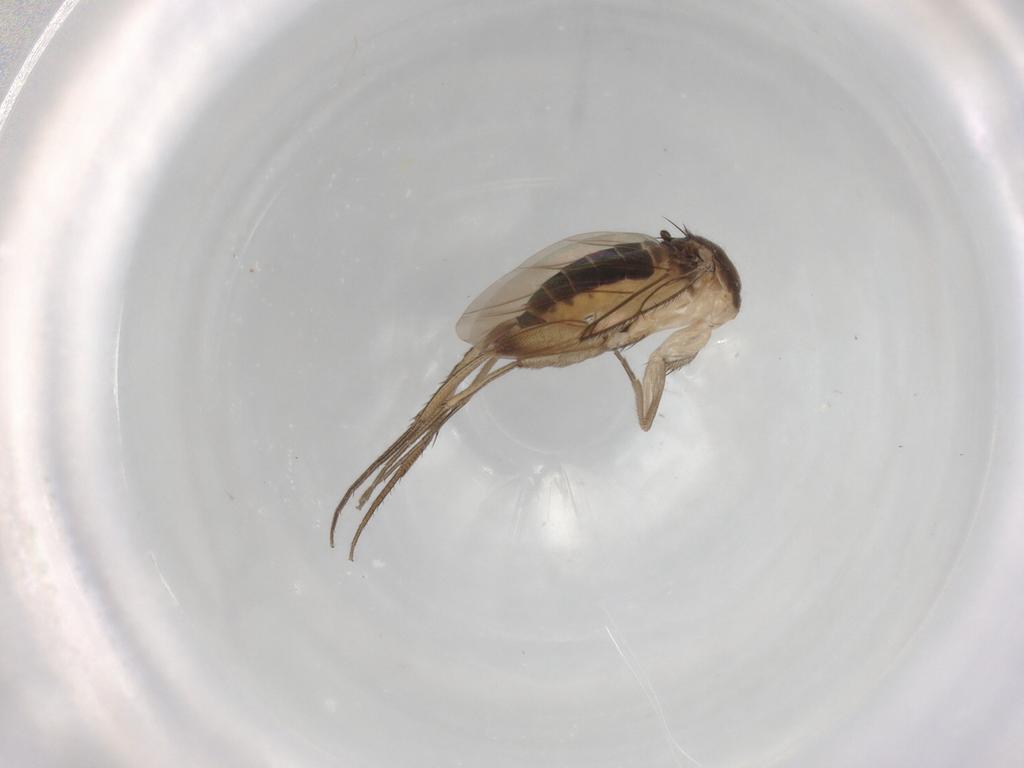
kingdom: Animalia
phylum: Arthropoda
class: Insecta
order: Diptera
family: Phoridae
